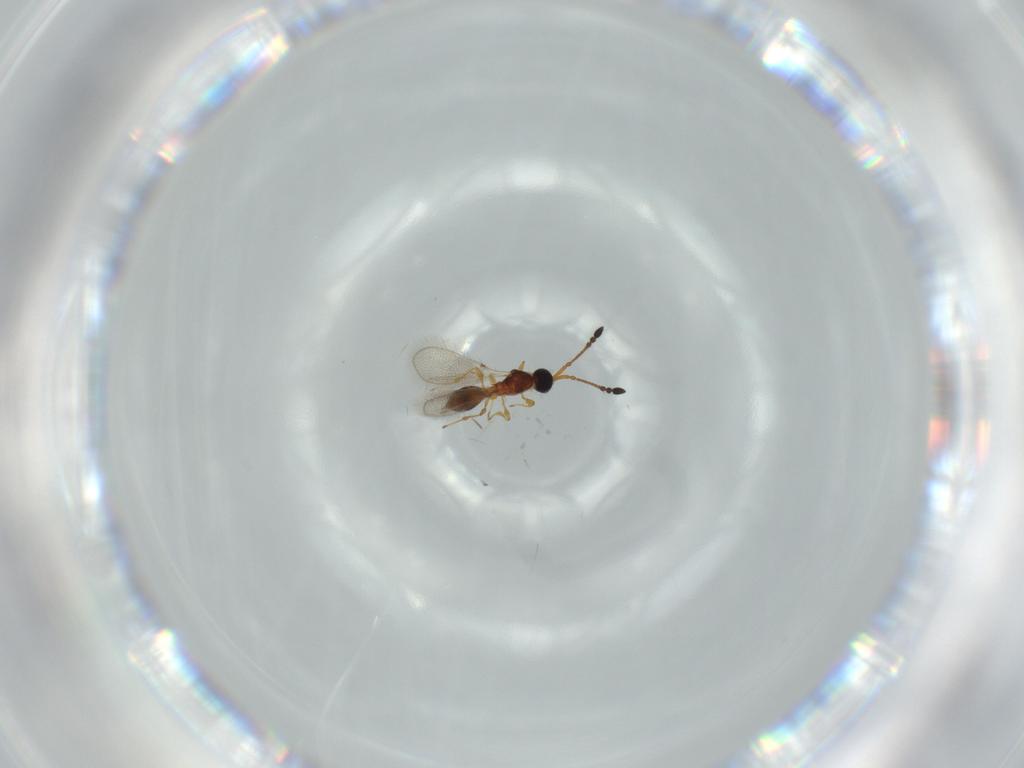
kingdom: Animalia
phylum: Arthropoda
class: Insecta
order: Hymenoptera
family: Diapriidae
